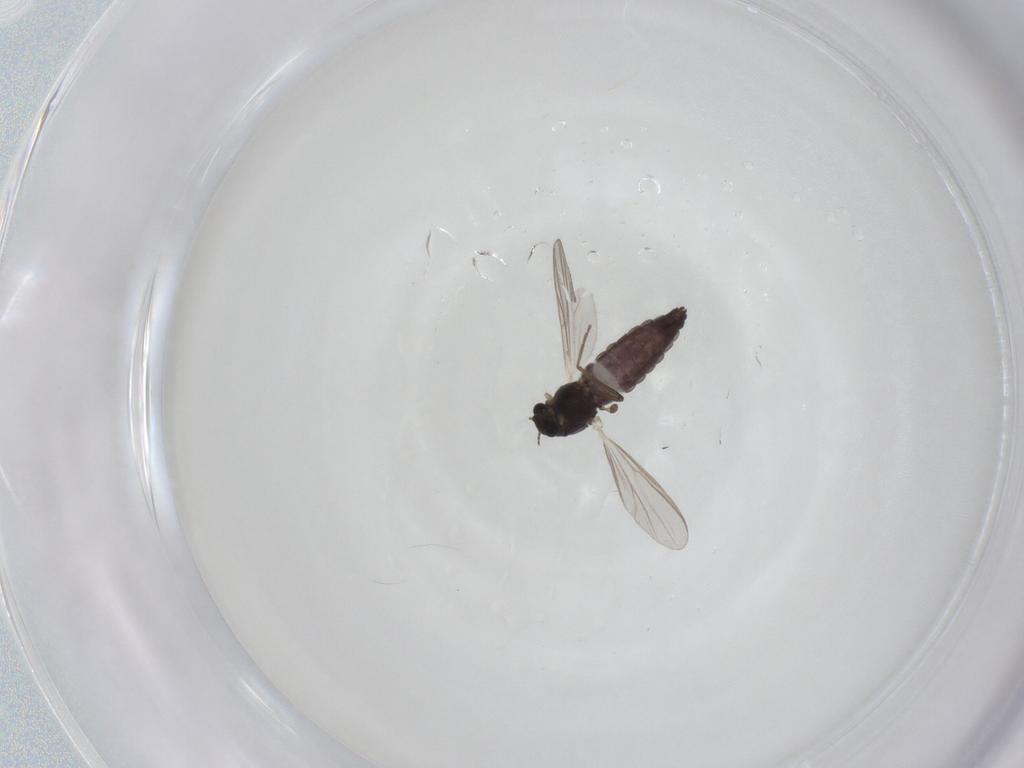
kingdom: Animalia
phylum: Arthropoda
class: Insecta
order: Diptera
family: Chironomidae
